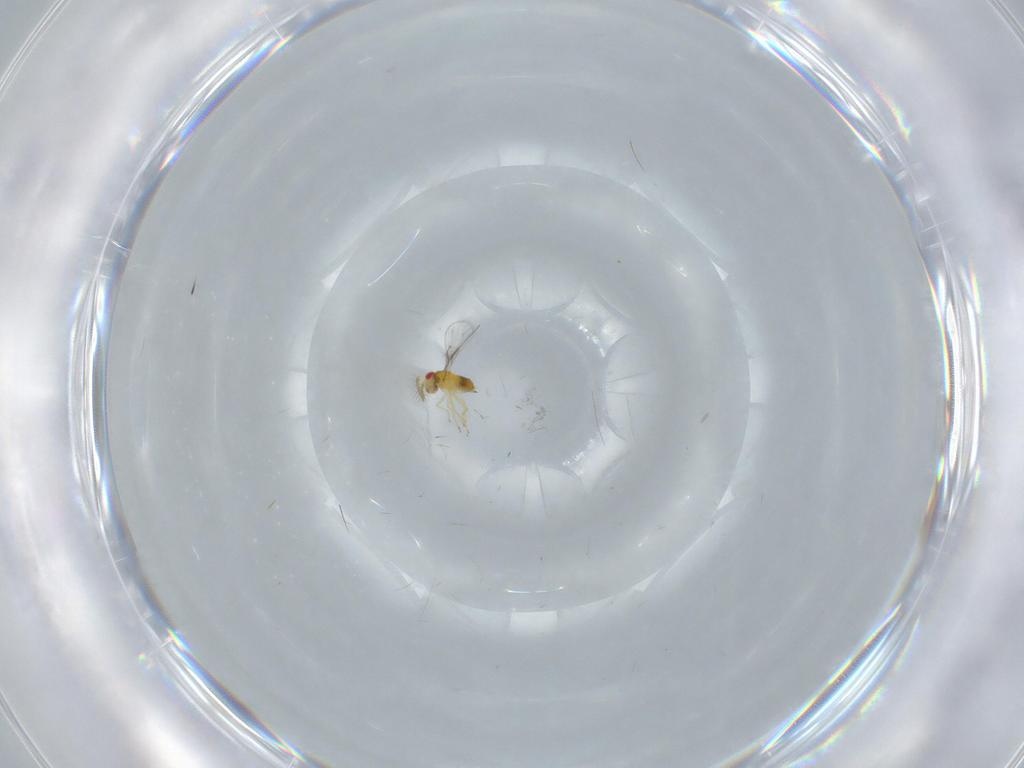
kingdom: Animalia
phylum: Arthropoda
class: Insecta
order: Hymenoptera
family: Trichogrammatidae
